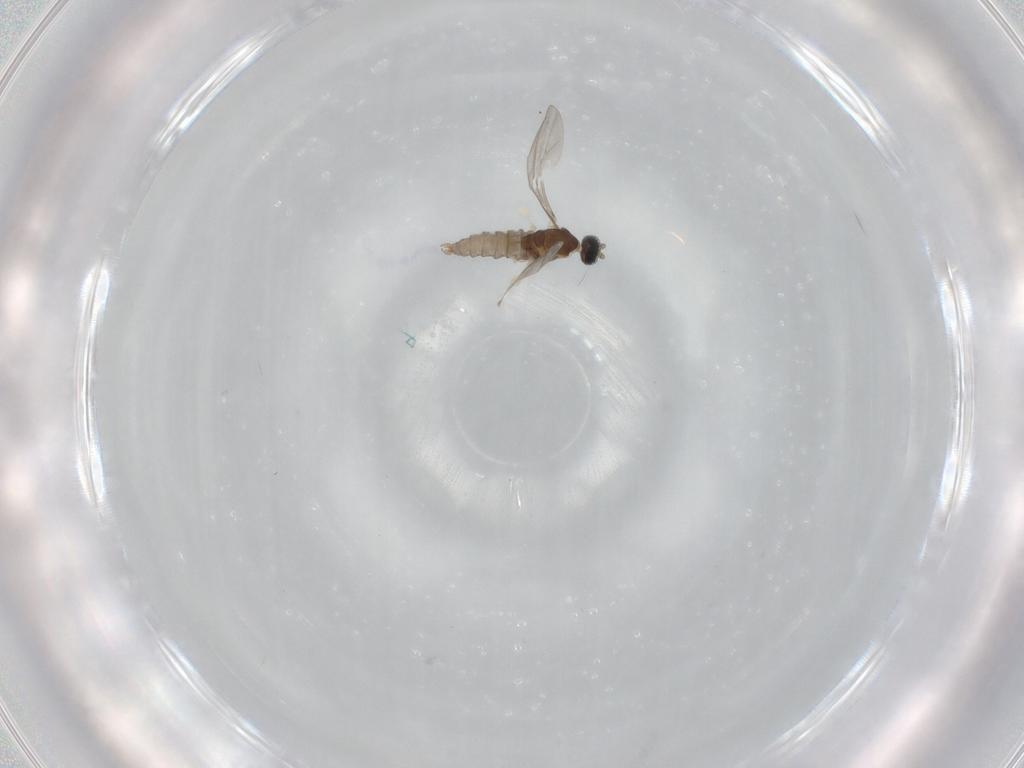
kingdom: Animalia
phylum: Arthropoda
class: Insecta
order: Diptera
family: Cecidomyiidae
